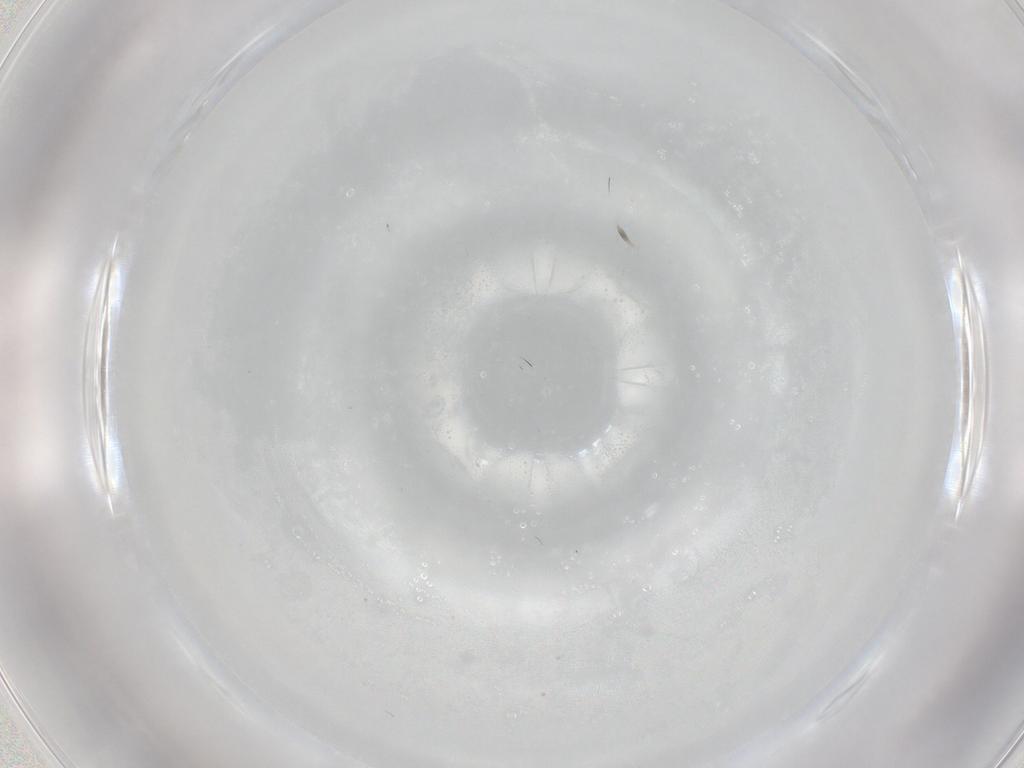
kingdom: Animalia
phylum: Arthropoda
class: Insecta
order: Diptera
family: Cecidomyiidae
